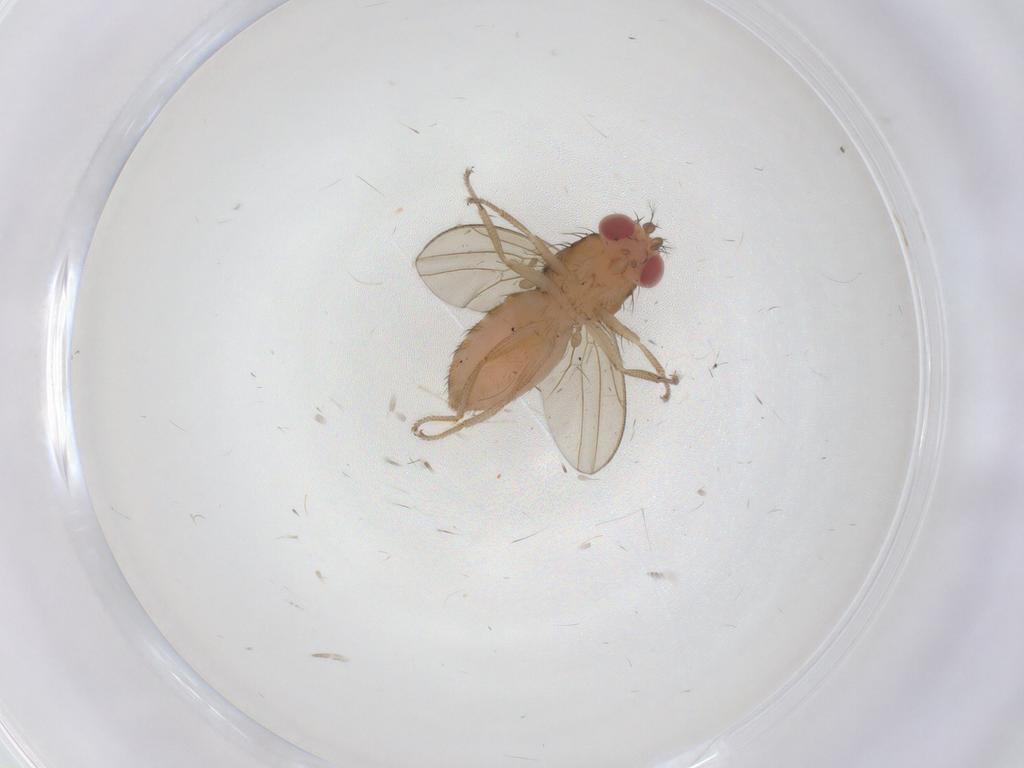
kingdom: Animalia
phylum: Arthropoda
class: Insecta
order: Diptera
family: Drosophilidae
